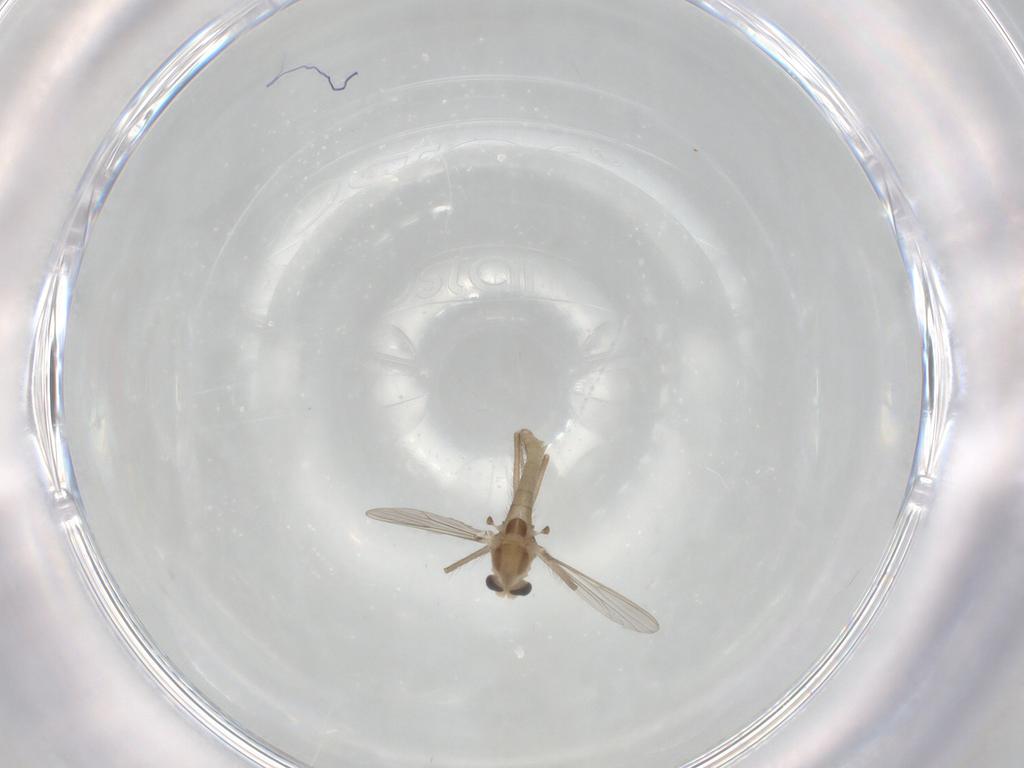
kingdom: Animalia
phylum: Arthropoda
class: Insecta
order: Diptera
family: Chironomidae
